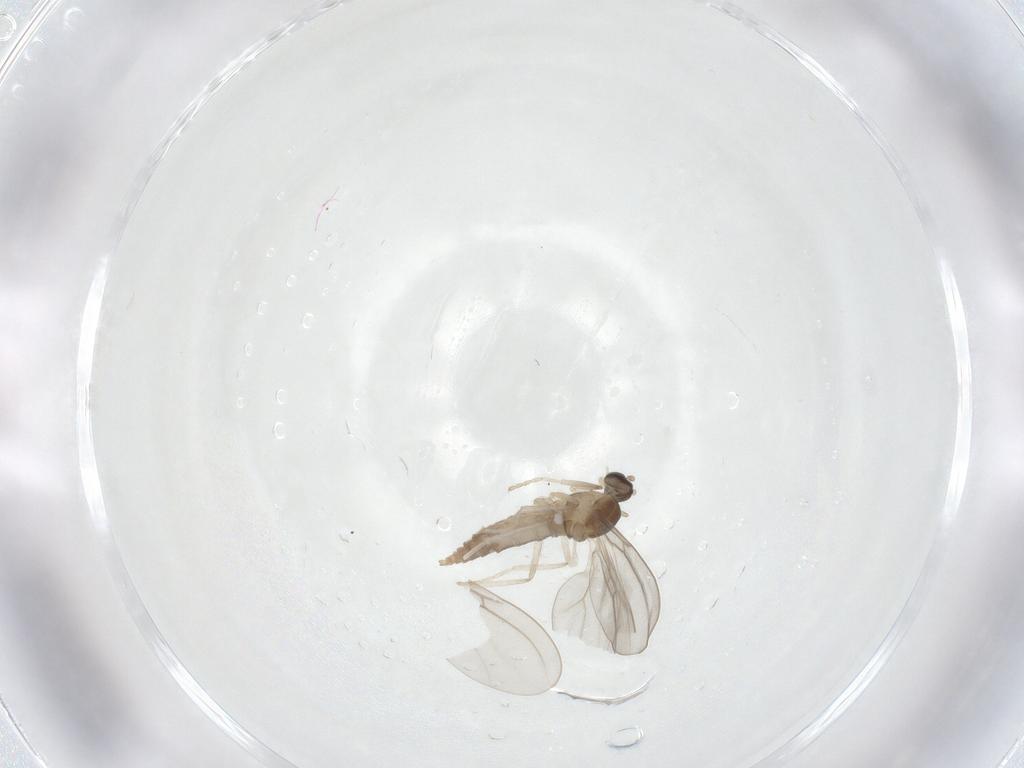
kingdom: Animalia
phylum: Arthropoda
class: Insecta
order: Diptera
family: Cecidomyiidae
